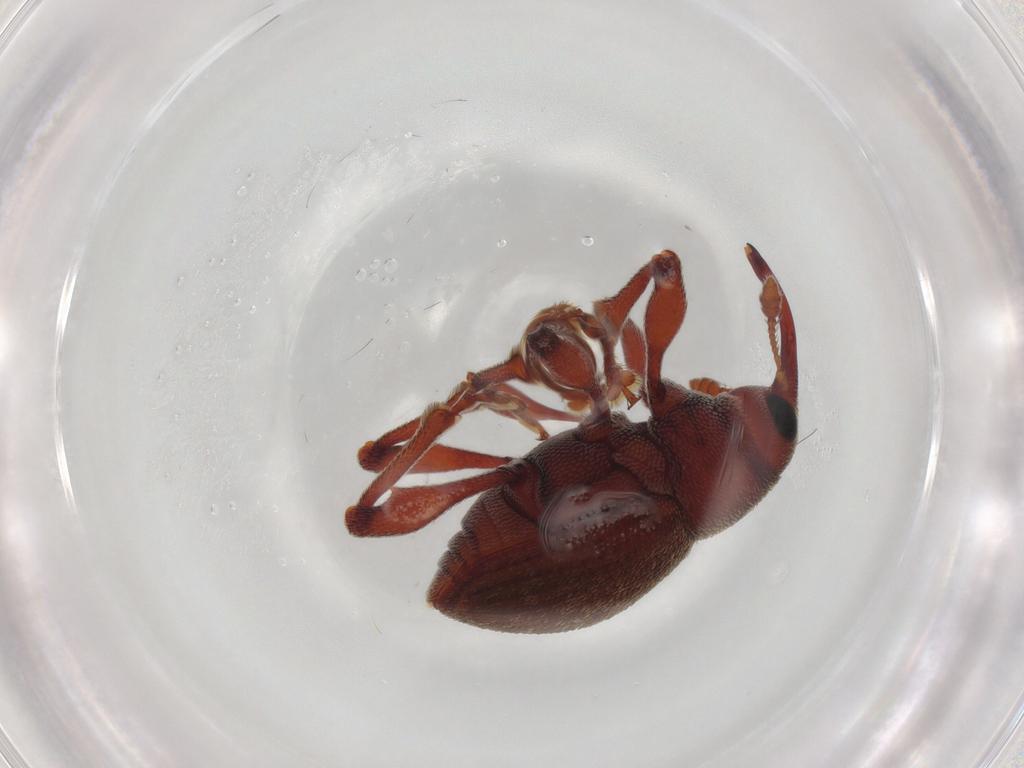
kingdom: Animalia
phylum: Arthropoda
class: Insecta
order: Coleoptera
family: Curculionidae
